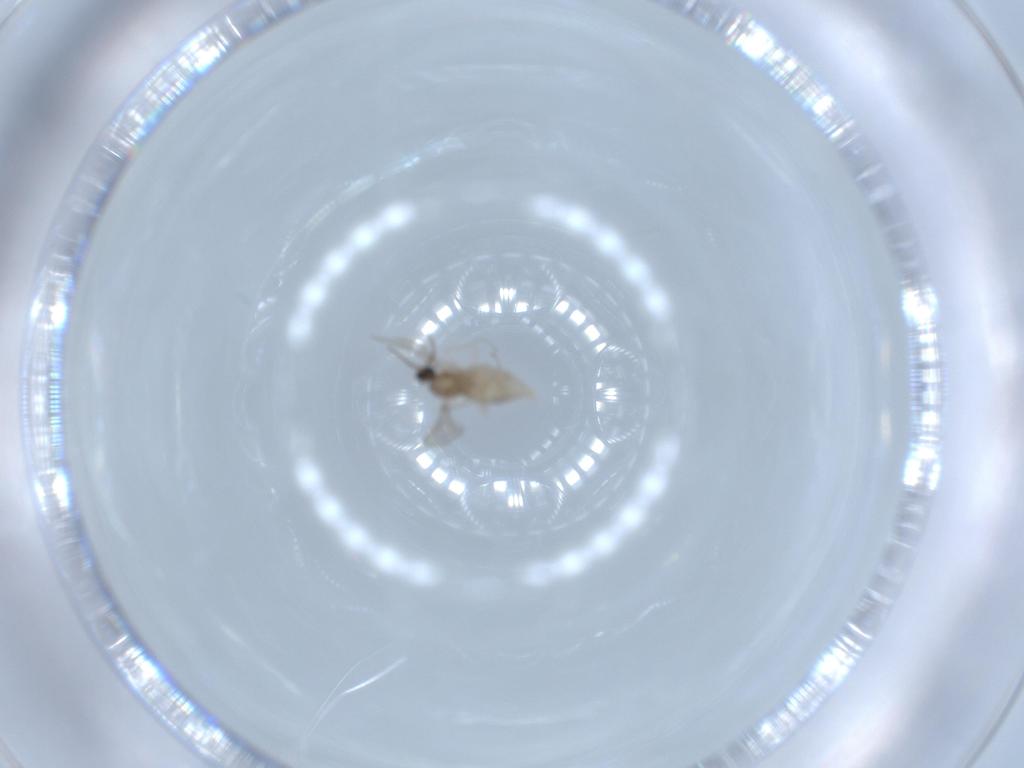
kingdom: Animalia
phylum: Arthropoda
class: Insecta
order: Diptera
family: Cecidomyiidae
